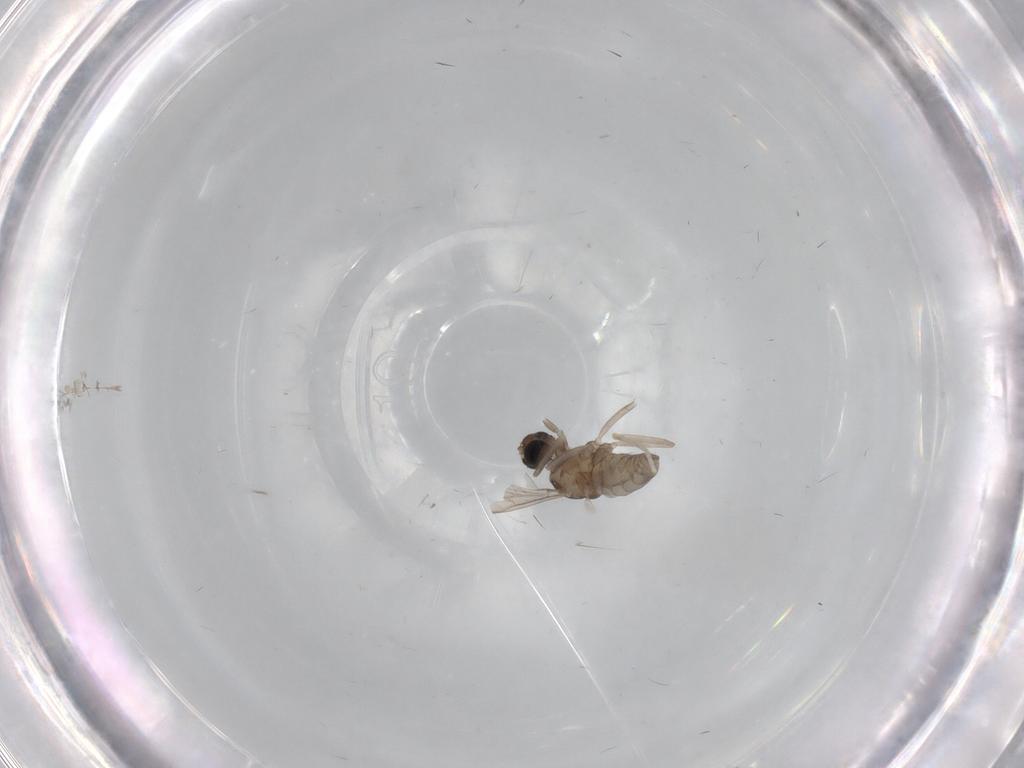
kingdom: Animalia
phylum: Arthropoda
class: Insecta
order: Diptera
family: Cecidomyiidae
